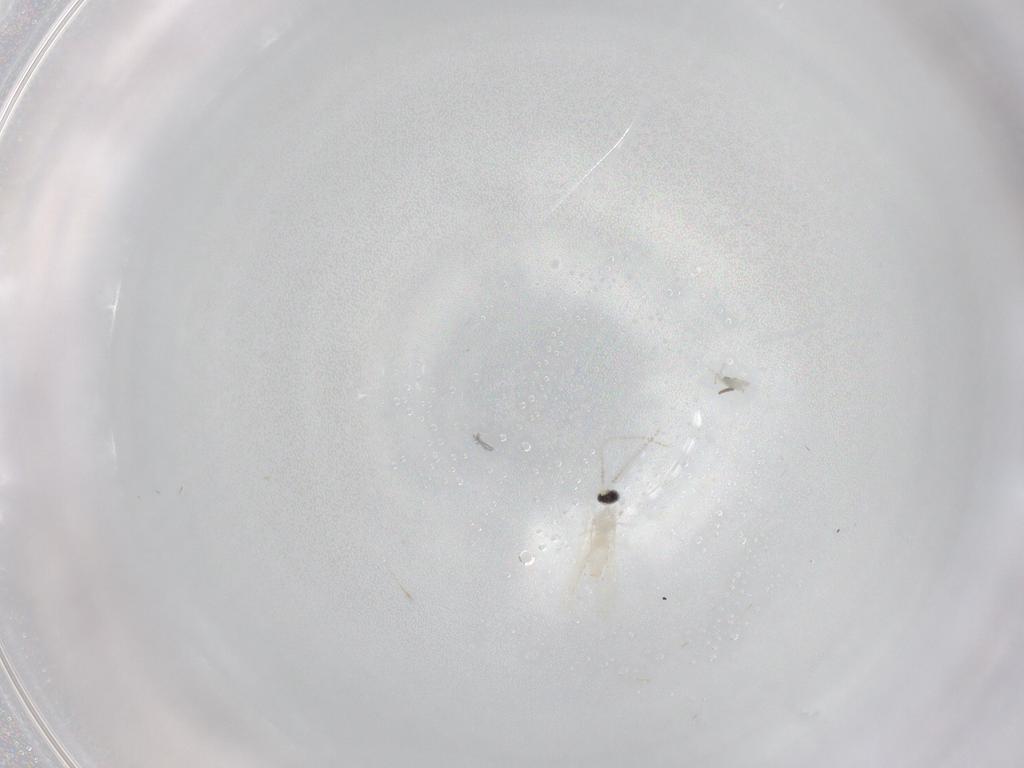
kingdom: Animalia
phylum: Arthropoda
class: Insecta
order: Diptera
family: Cecidomyiidae
